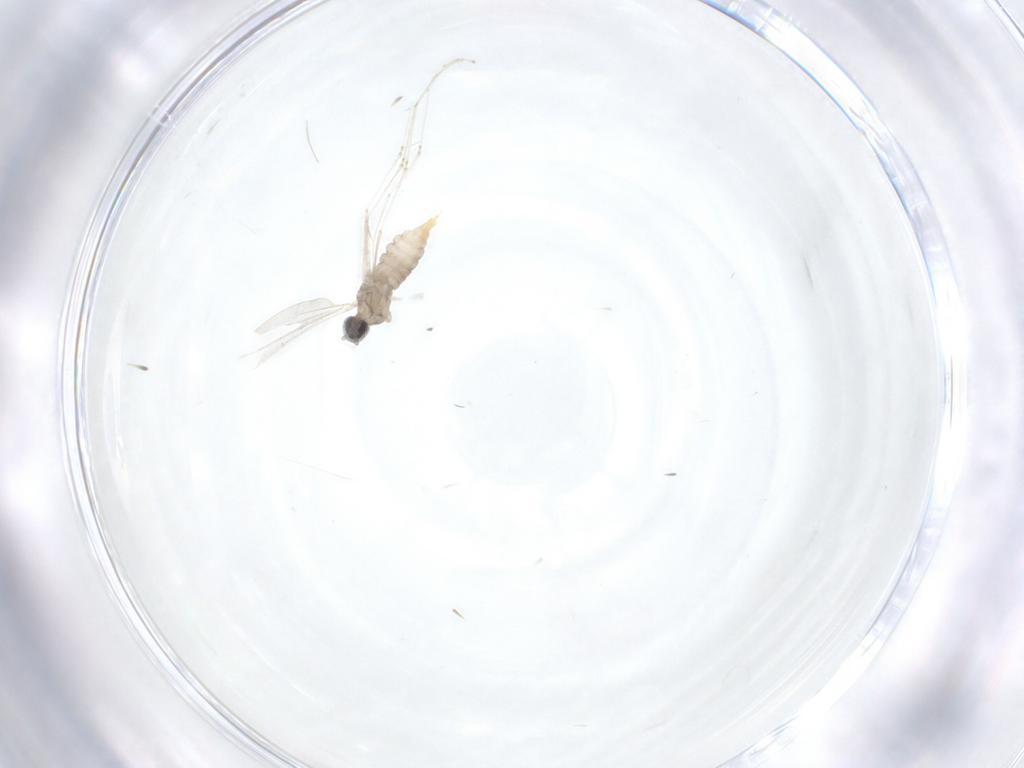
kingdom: Animalia
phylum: Arthropoda
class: Insecta
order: Diptera
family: Cecidomyiidae
